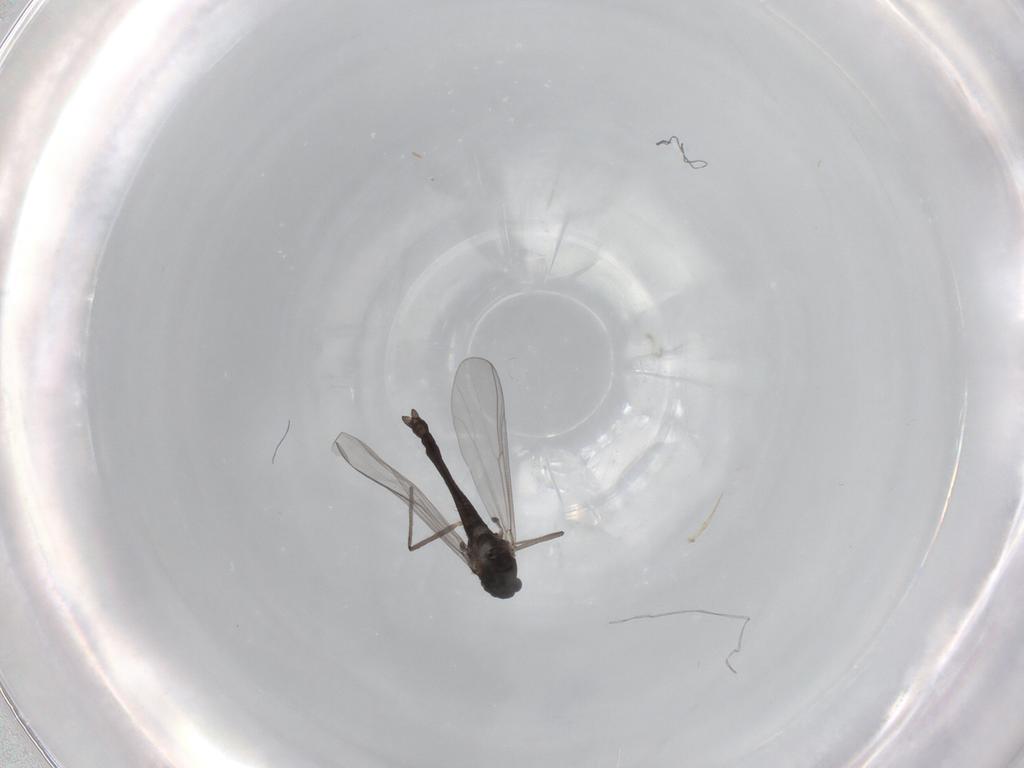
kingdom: Animalia
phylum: Arthropoda
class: Insecta
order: Diptera
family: Chironomidae
